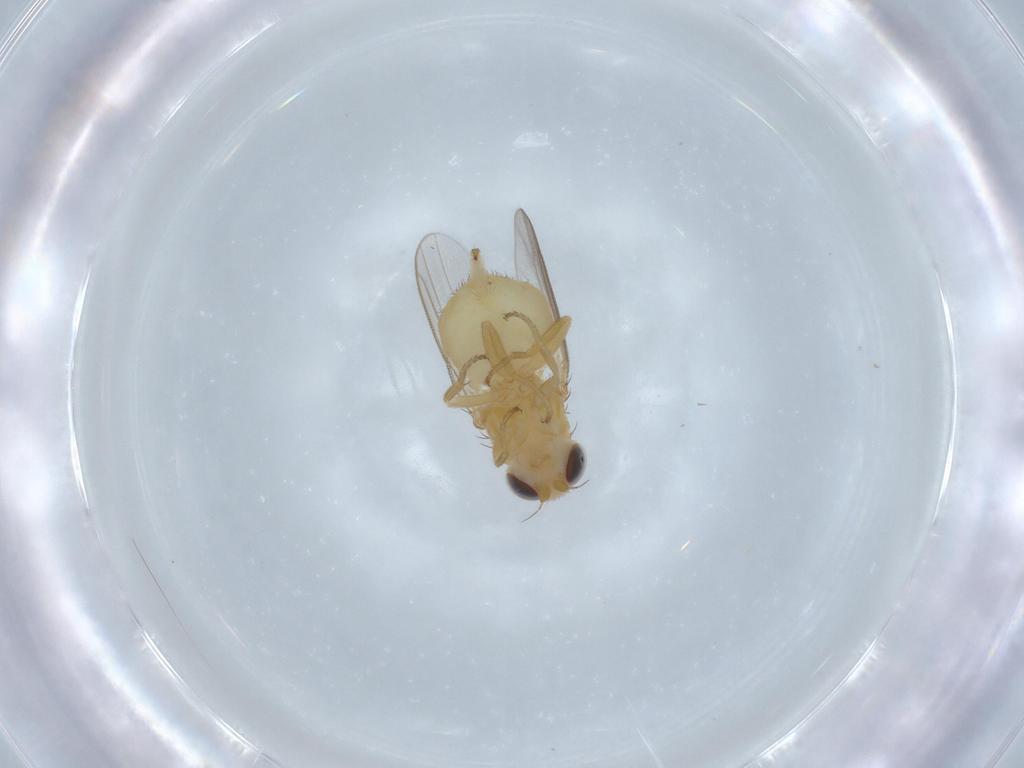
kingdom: Animalia
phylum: Arthropoda
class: Insecta
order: Diptera
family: Chloropidae
